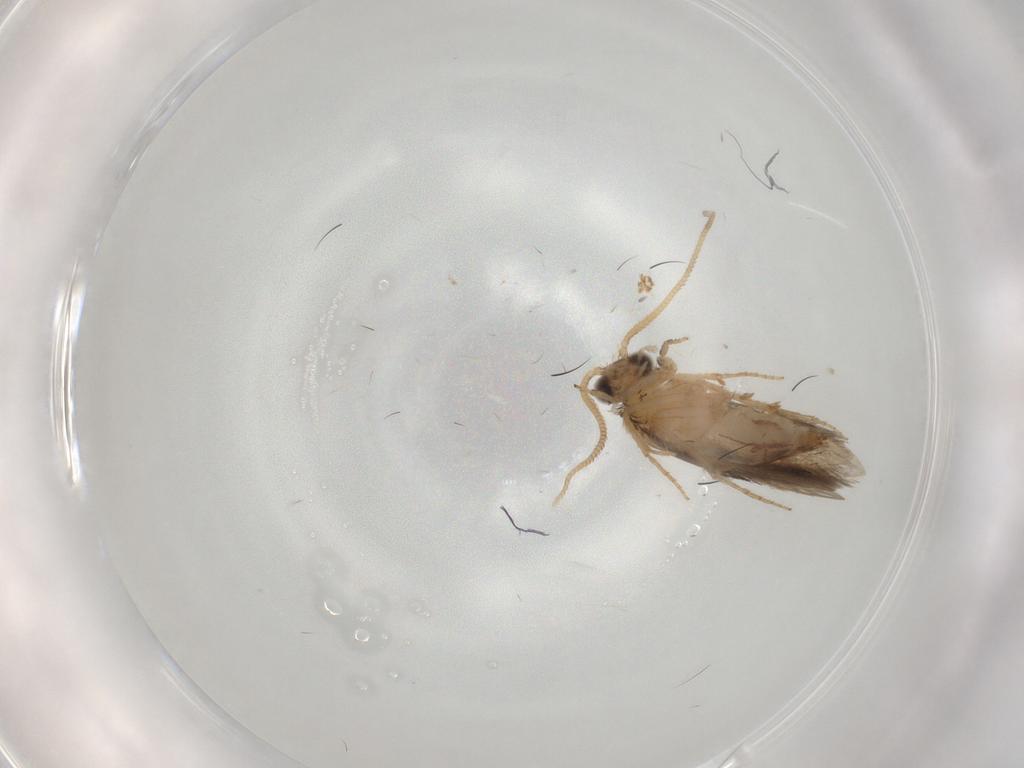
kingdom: Animalia
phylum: Arthropoda
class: Insecta
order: Trichoptera
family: Hydroptilidae
